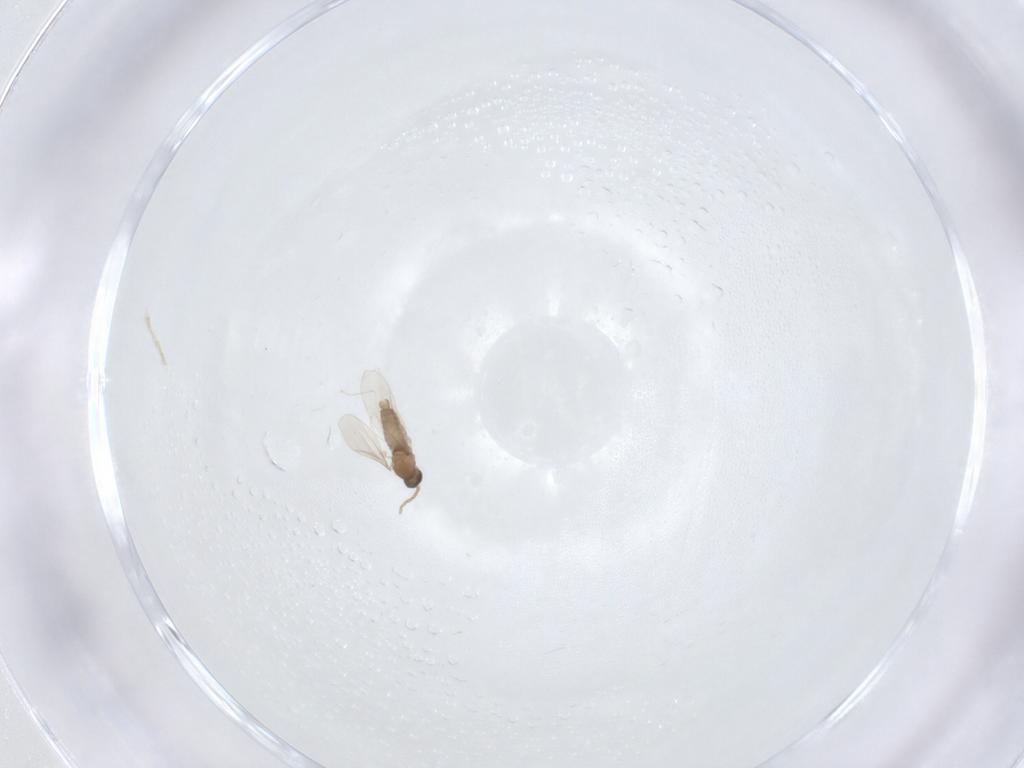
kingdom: Animalia
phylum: Arthropoda
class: Insecta
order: Diptera
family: Cecidomyiidae
